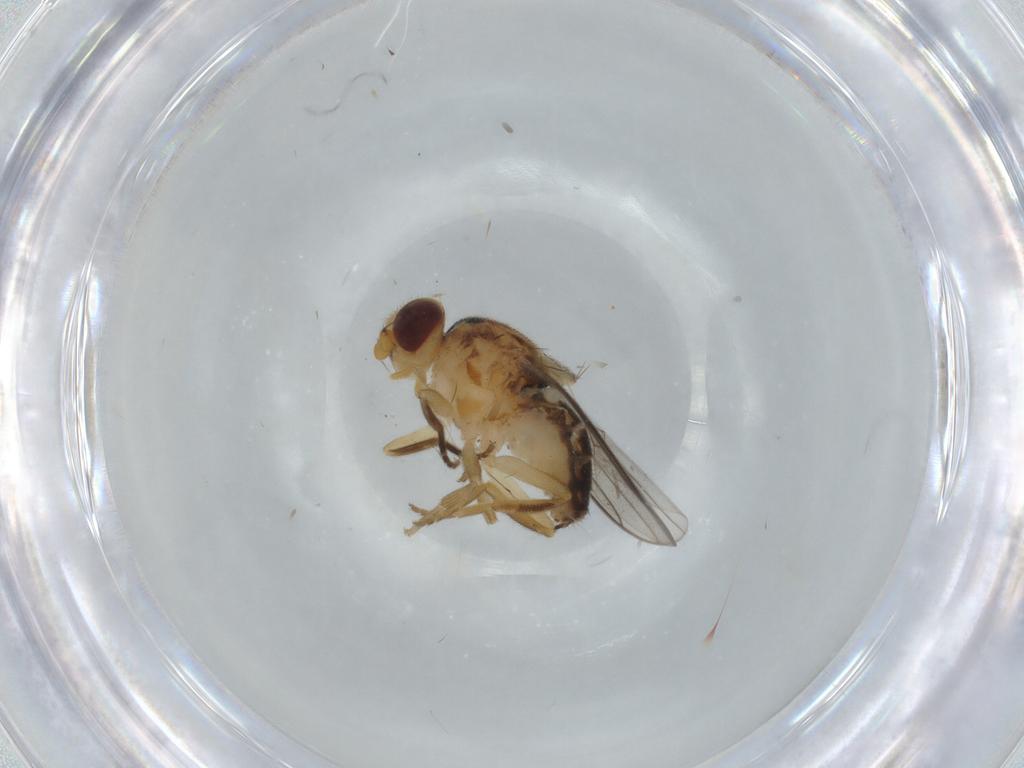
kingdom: Animalia
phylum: Arthropoda
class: Insecta
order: Diptera
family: Chloropidae
